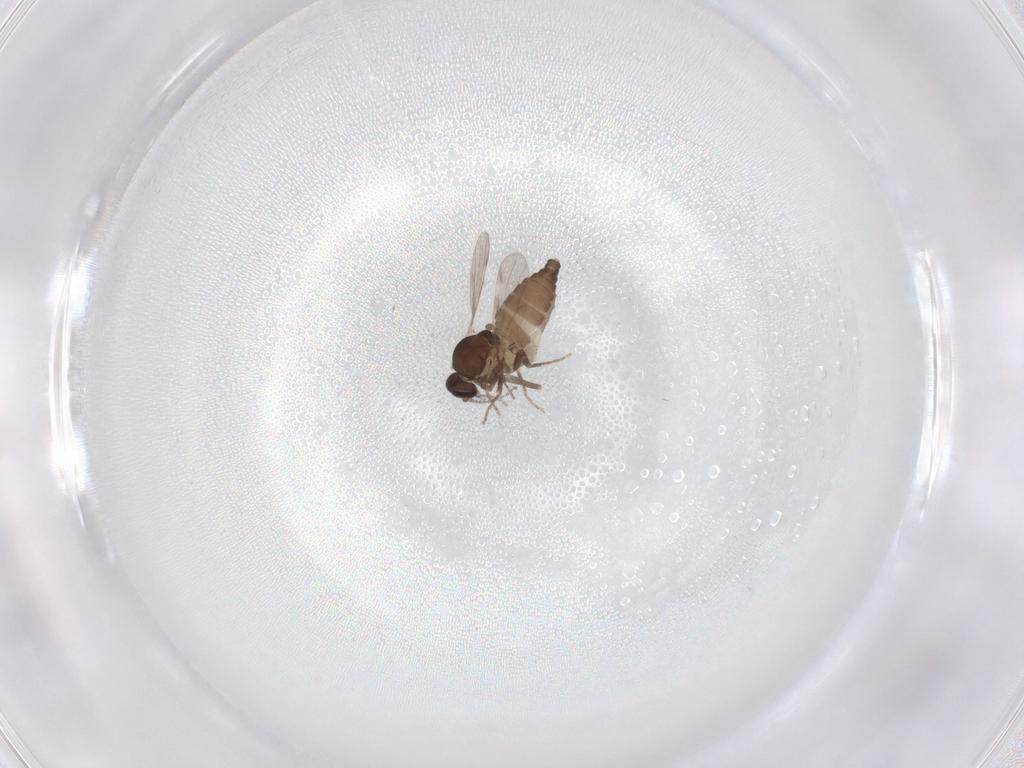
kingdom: Animalia
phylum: Arthropoda
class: Insecta
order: Diptera
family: Ceratopogonidae
